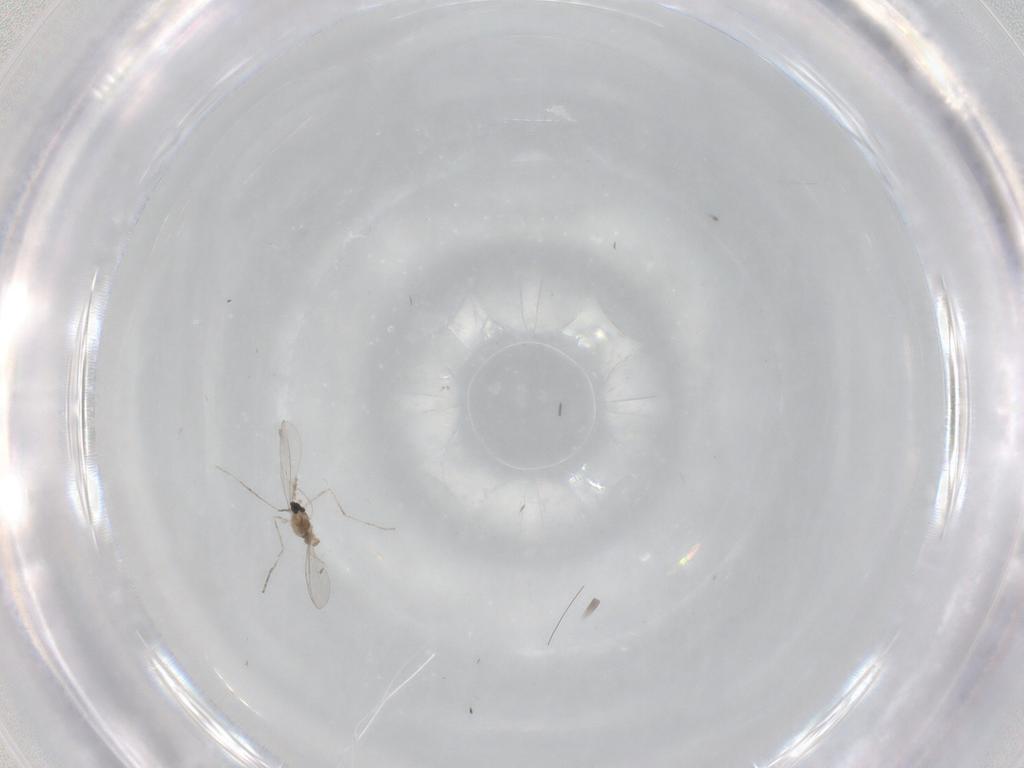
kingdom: Animalia
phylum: Arthropoda
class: Insecta
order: Diptera
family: Cecidomyiidae
